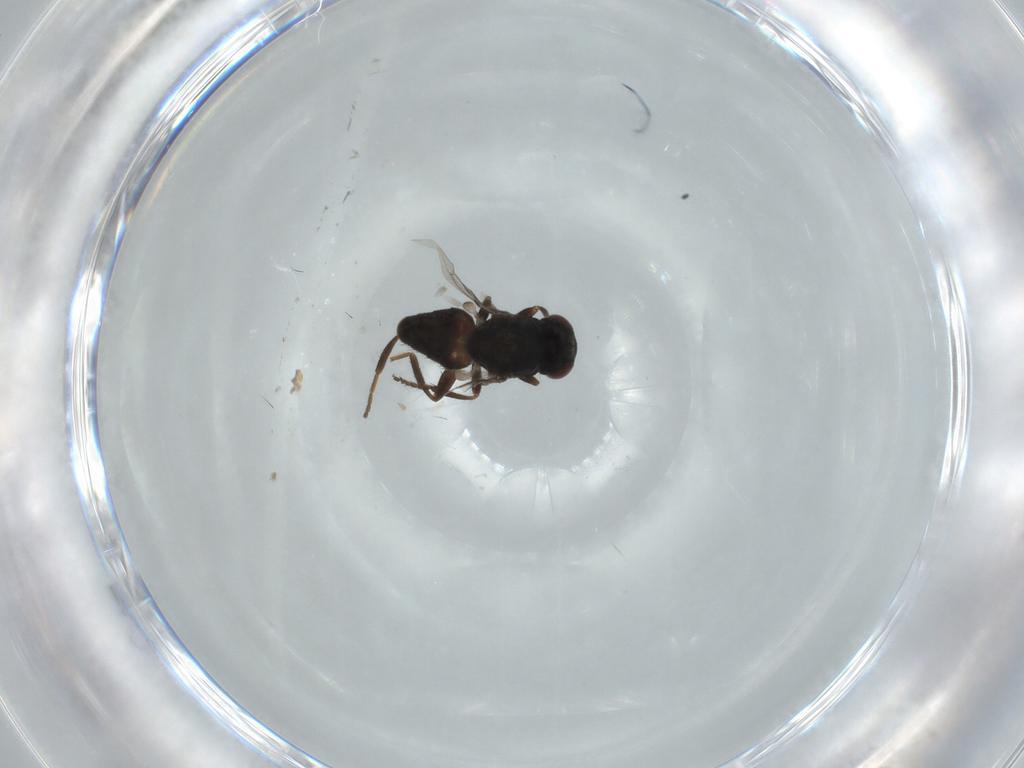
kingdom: Animalia
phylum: Arthropoda
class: Insecta
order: Diptera
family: Chloropidae
